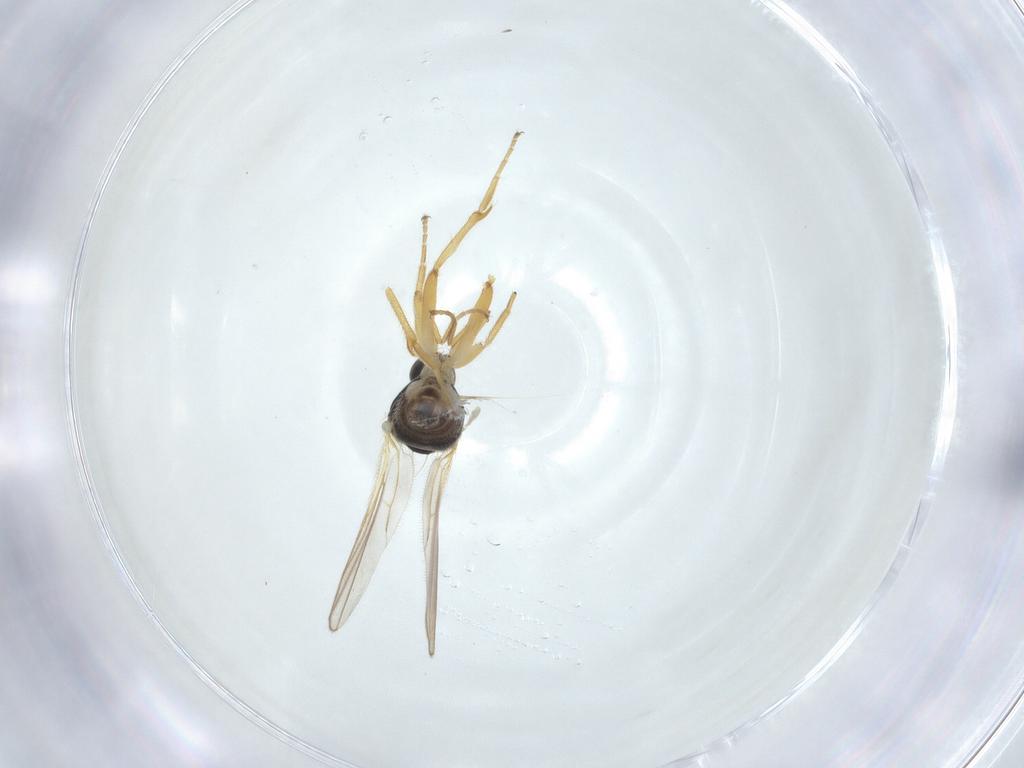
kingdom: Animalia
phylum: Arthropoda
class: Insecta
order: Diptera
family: Hybotidae
